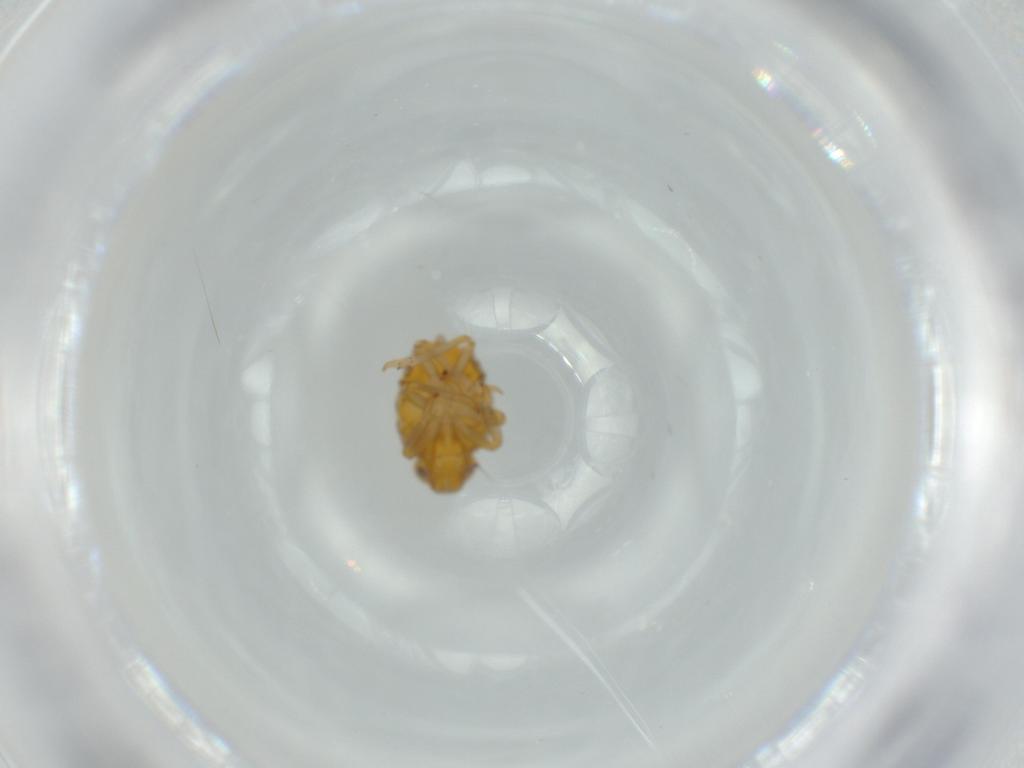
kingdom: Animalia
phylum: Arthropoda
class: Insecta
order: Hemiptera
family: Issidae
